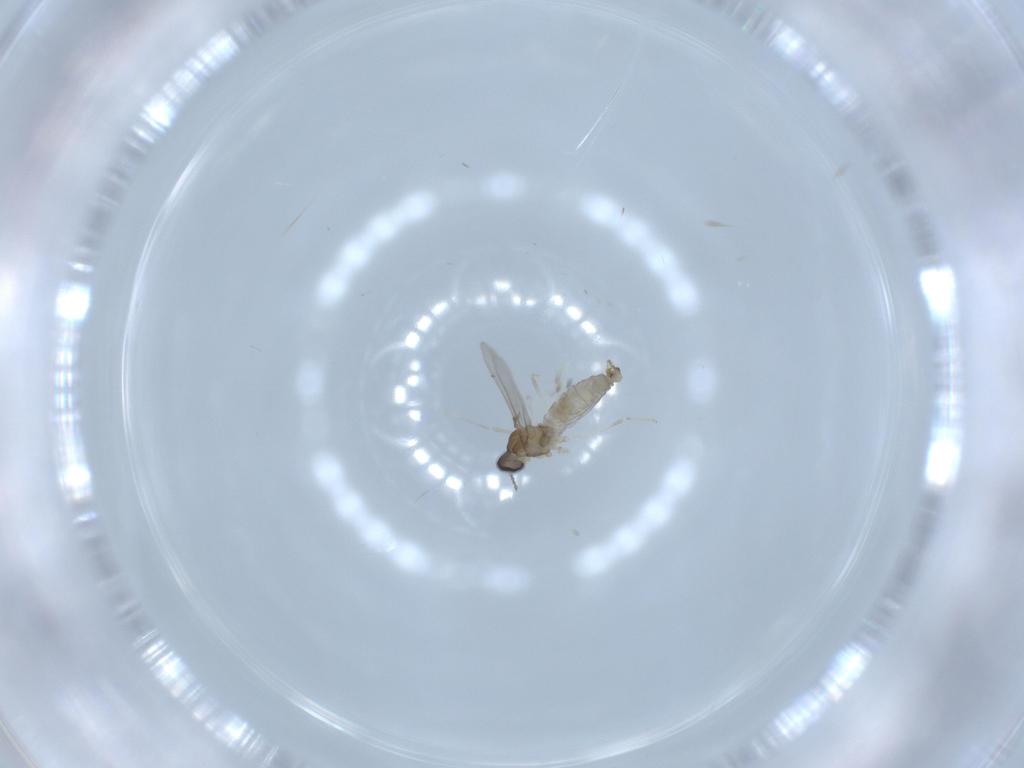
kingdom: Animalia
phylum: Arthropoda
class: Insecta
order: Diptera
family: Cecidomyiidae
